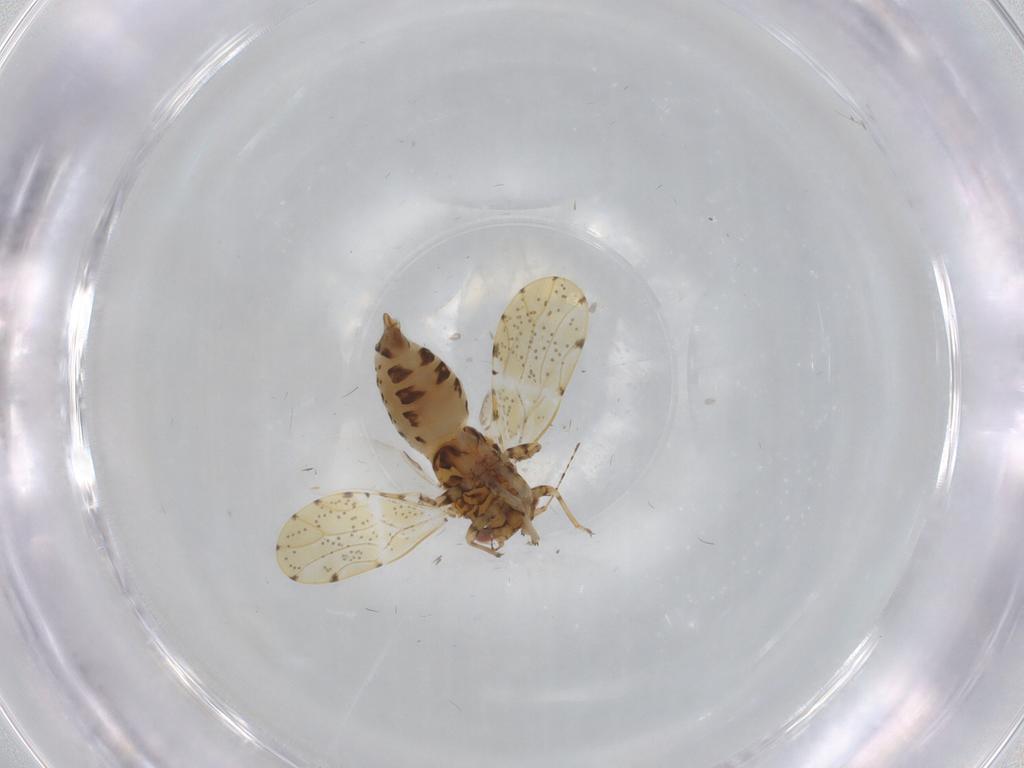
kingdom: Animalia
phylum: Arthropoda
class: Insecta
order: Hemiptera
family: Cicadellidae
